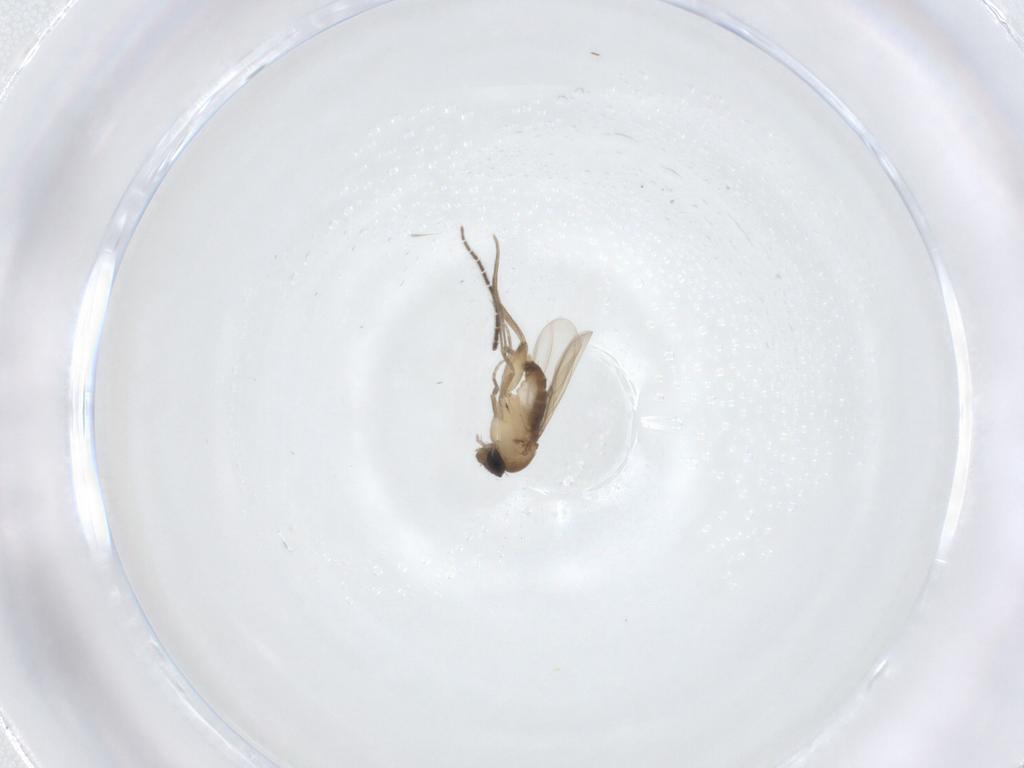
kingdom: Animalia
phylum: Arthropoda
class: Insecta
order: Diptera
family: Phoridae
